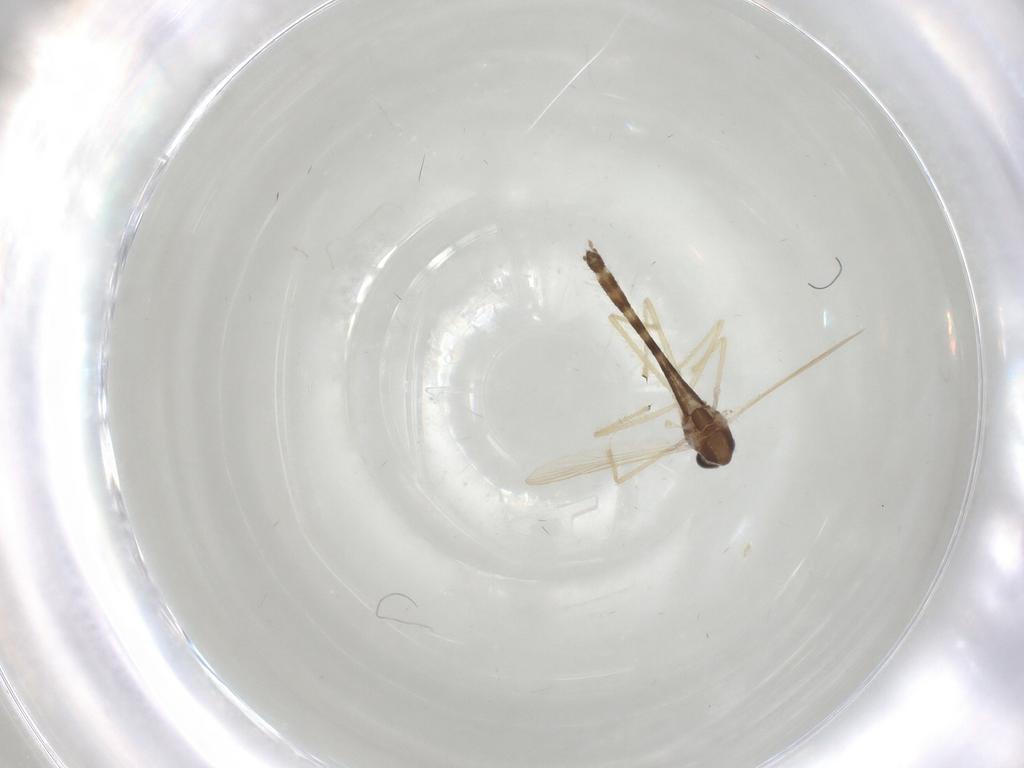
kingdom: Animalia
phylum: Arthropoda
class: Insecta
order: Diptera
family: Chironomidae
